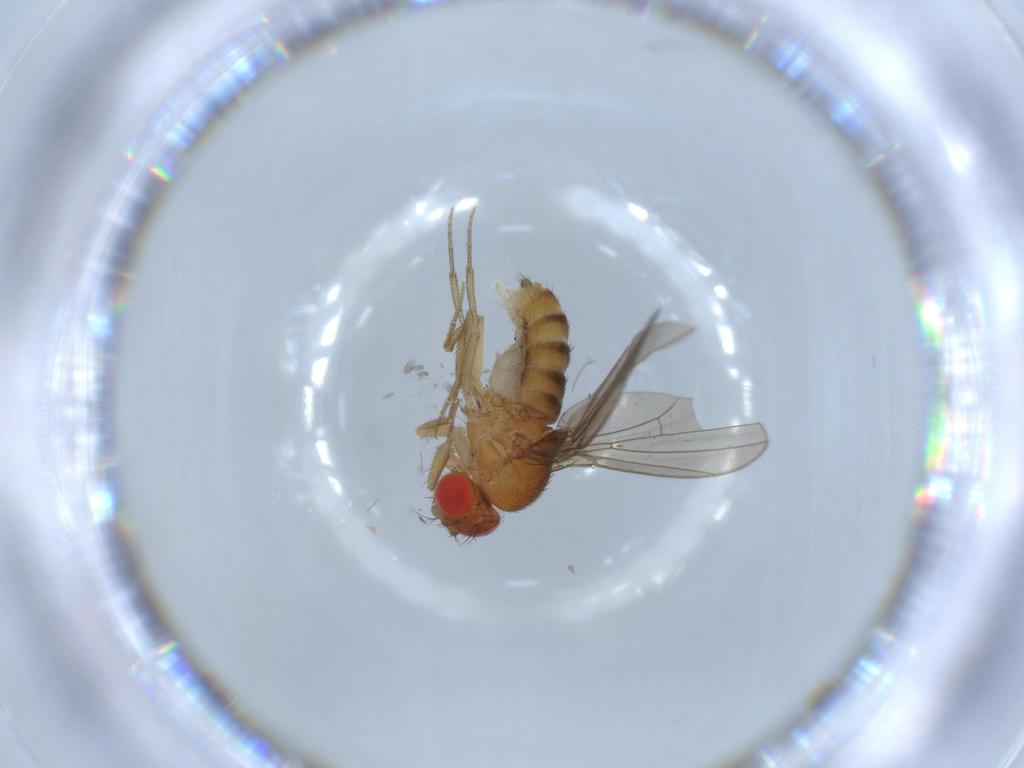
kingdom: Animalia
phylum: Arthropoda
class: Insecta
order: Diptera
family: Drosophilidae
